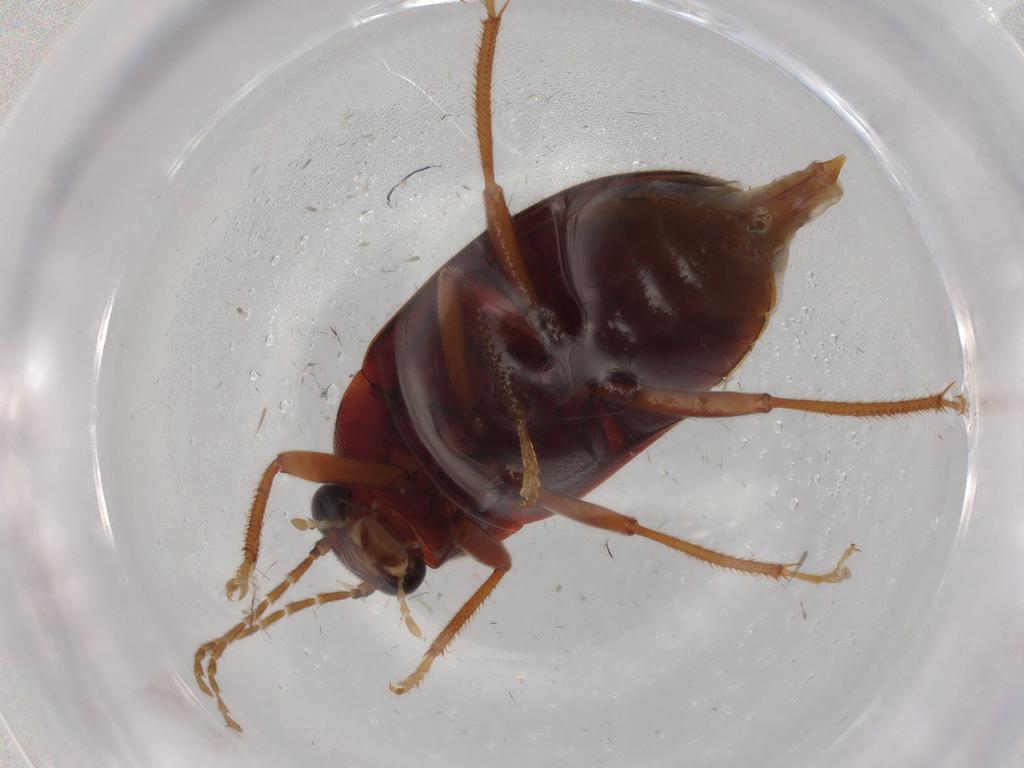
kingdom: Animalia
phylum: Arthropoda
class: Insecta
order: Coleoptera
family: Ptilodactylidae
